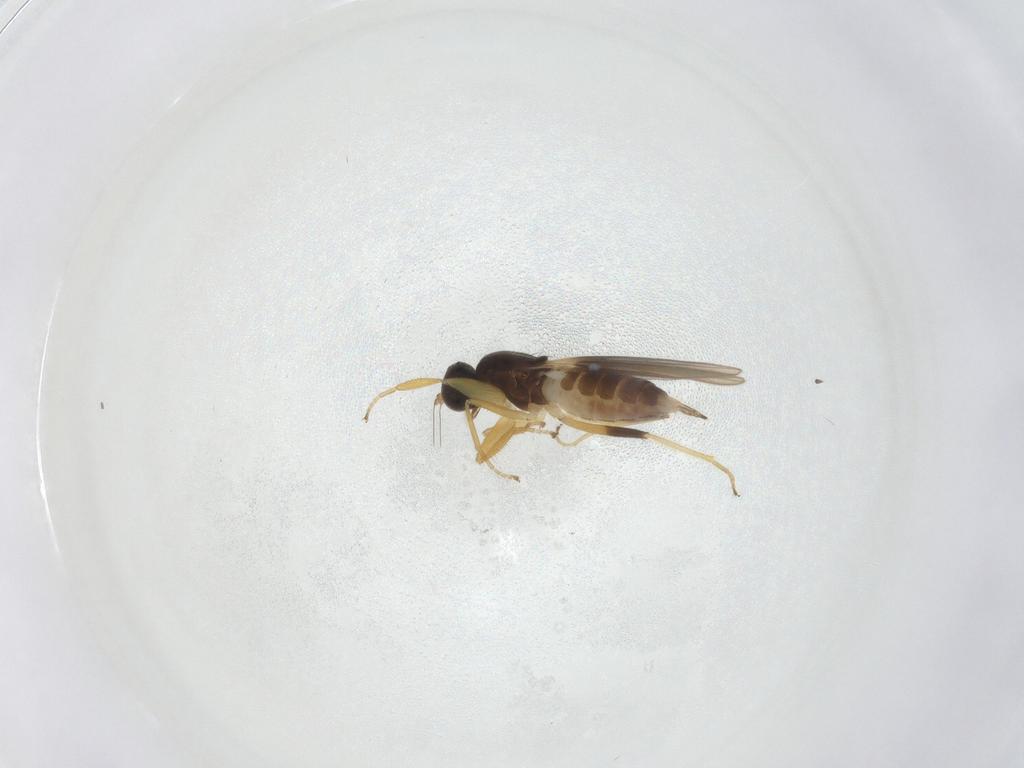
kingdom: Animalia
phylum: Arthropoda
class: Insecta
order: Diptera
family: Hybotidae
